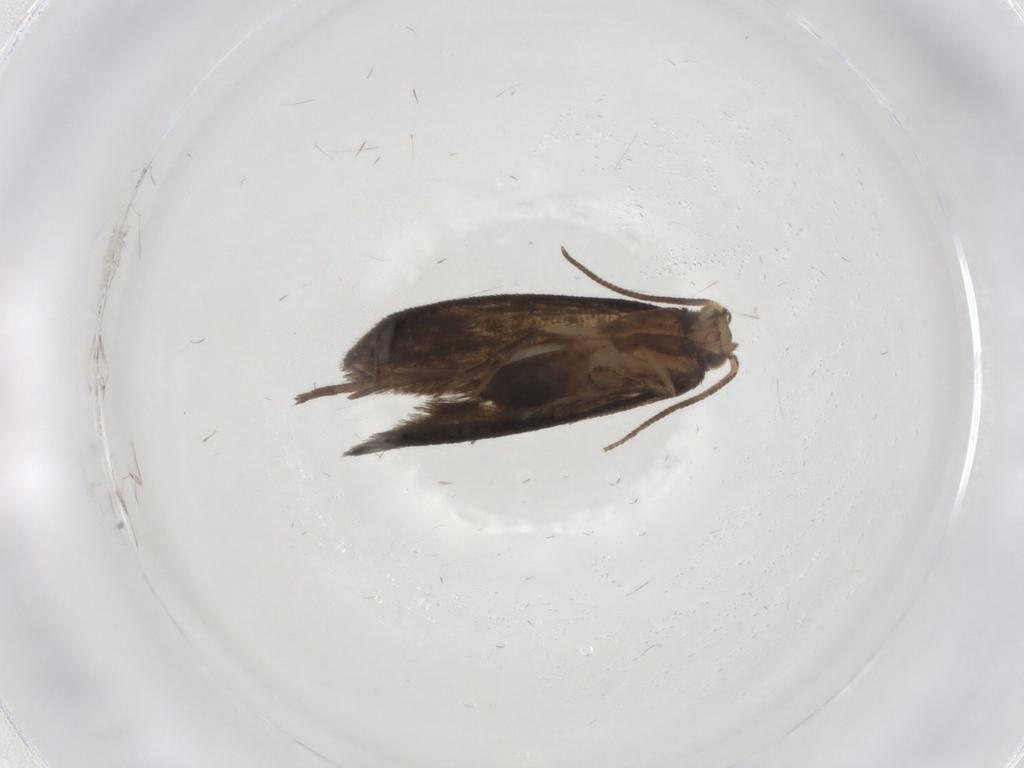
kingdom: Animalia
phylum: Arthropoda
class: Insecta
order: Lepidoptera
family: Tineidae
